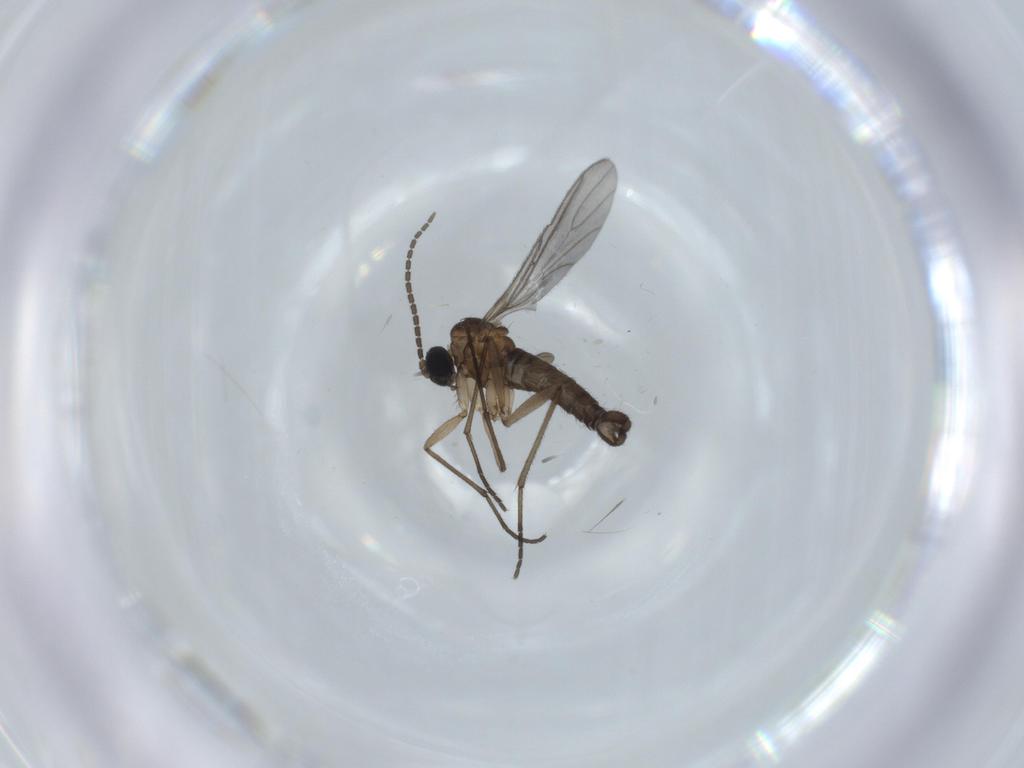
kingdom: Animalia
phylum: Arthropoda
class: Insecta
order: Diptera
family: Sciaridae
